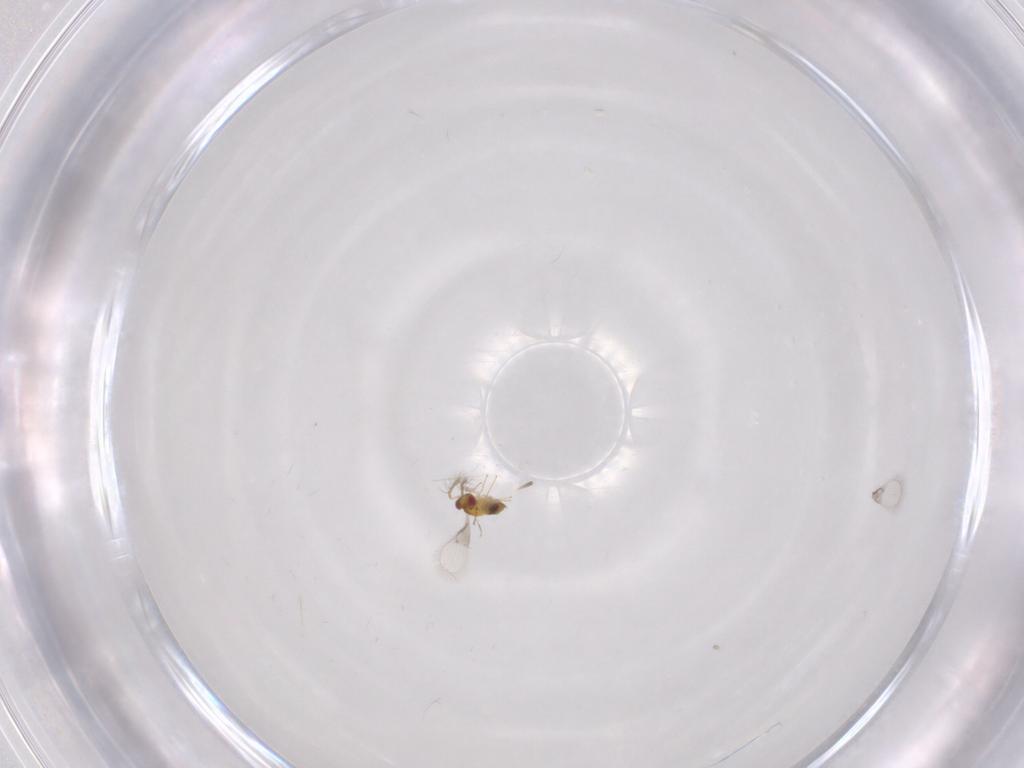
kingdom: Animalia
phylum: Arthropoda
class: Insecta
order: Hymenoptera
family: Trichogrammatidae
